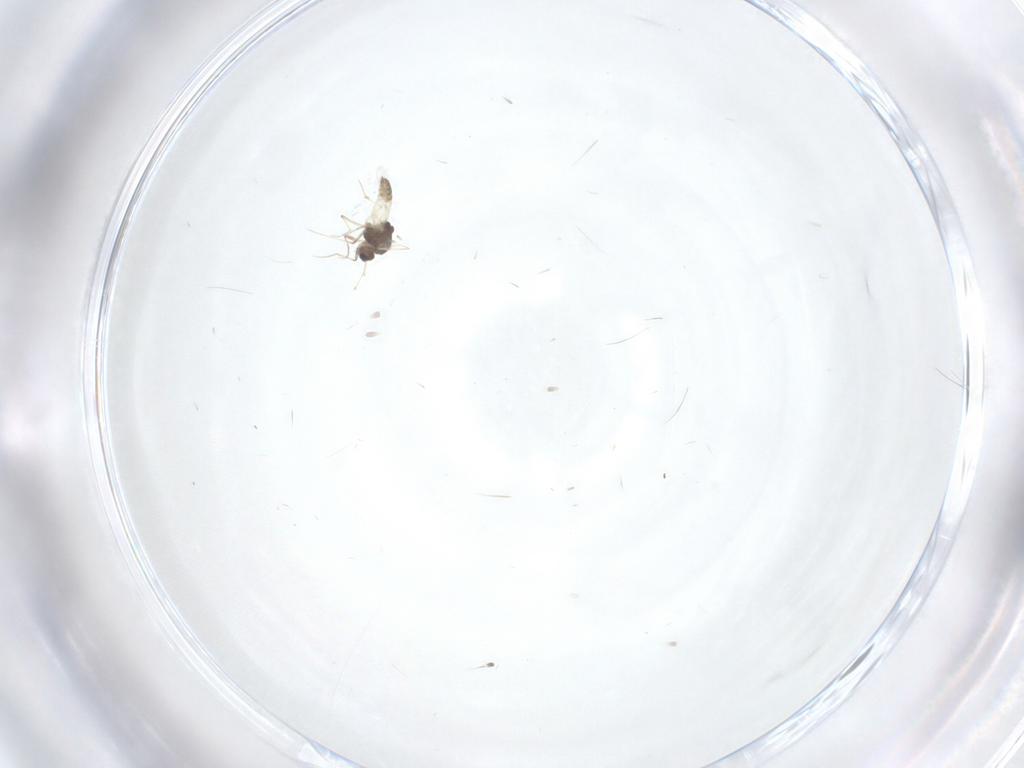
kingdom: Animalia
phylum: Arthropoda
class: Insecta
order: Diptera
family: Chironomidae
